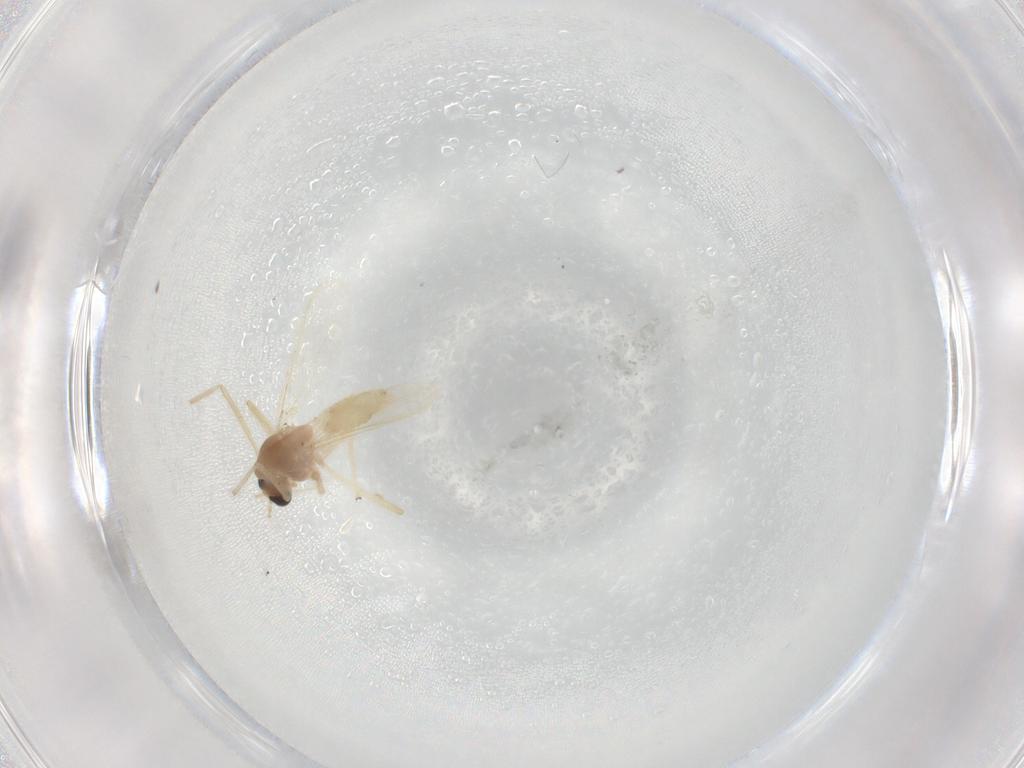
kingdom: Animalia
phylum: Arthropoda
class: Insecta
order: Diptera
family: Chironomidae
